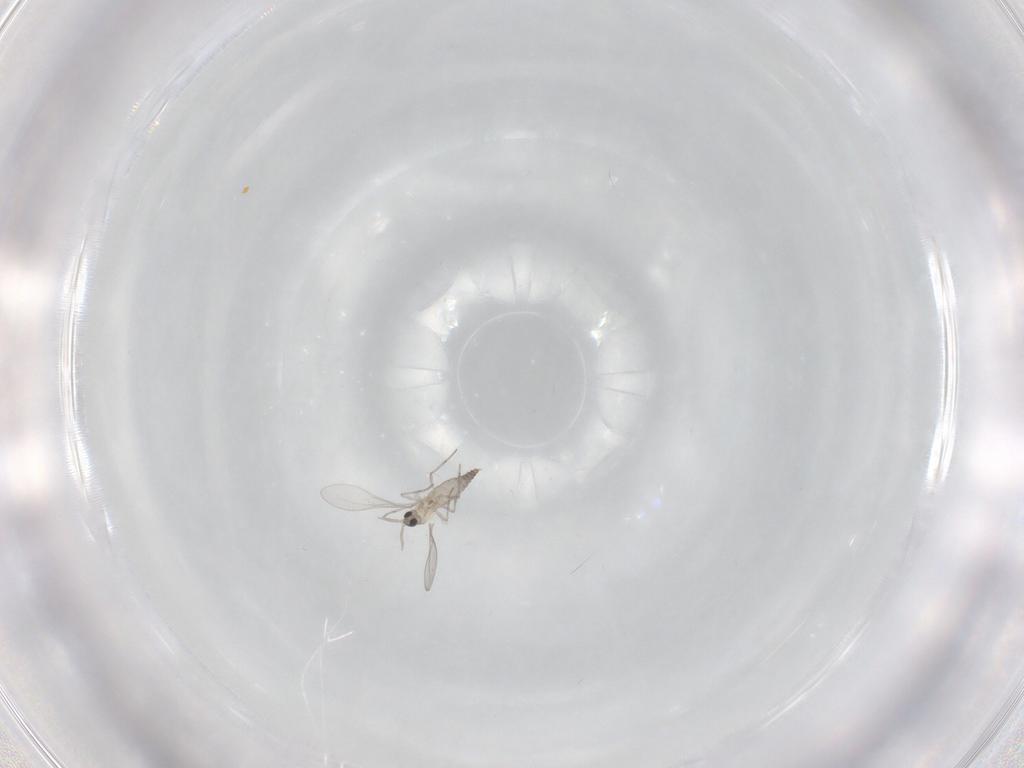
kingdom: Animalia
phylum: Arthropoda
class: Insecta
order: Diptera
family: Cecidomyiidae
